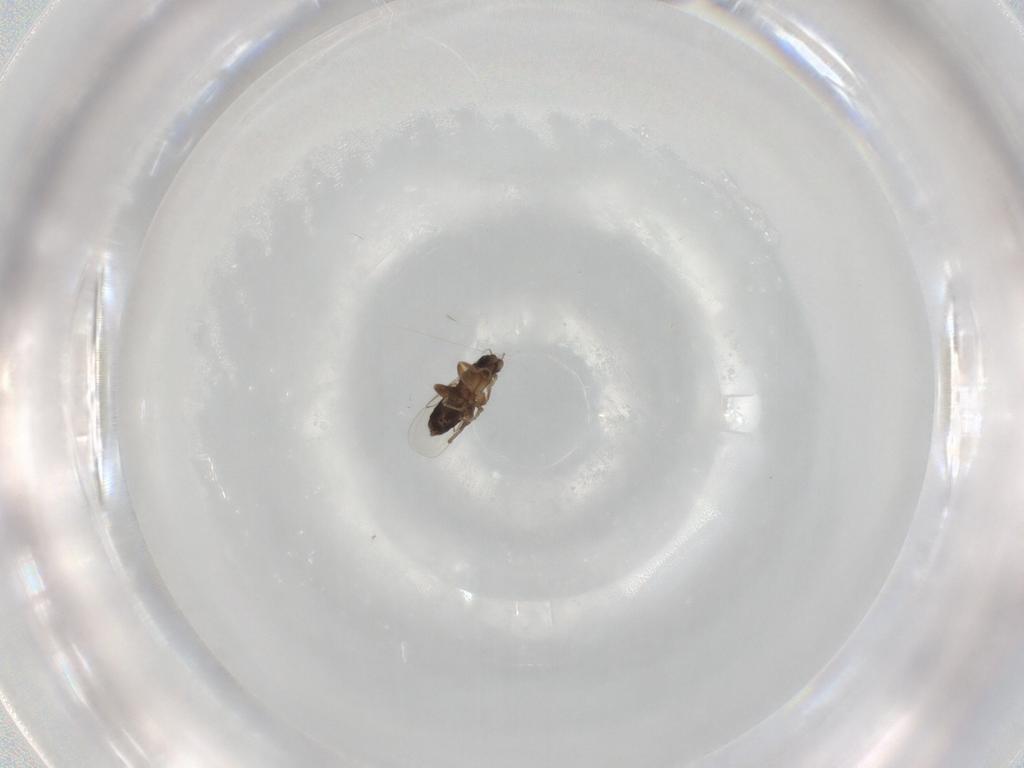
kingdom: Animalia
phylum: Arthropoda
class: Insecta
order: Diptera
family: Phoridae
